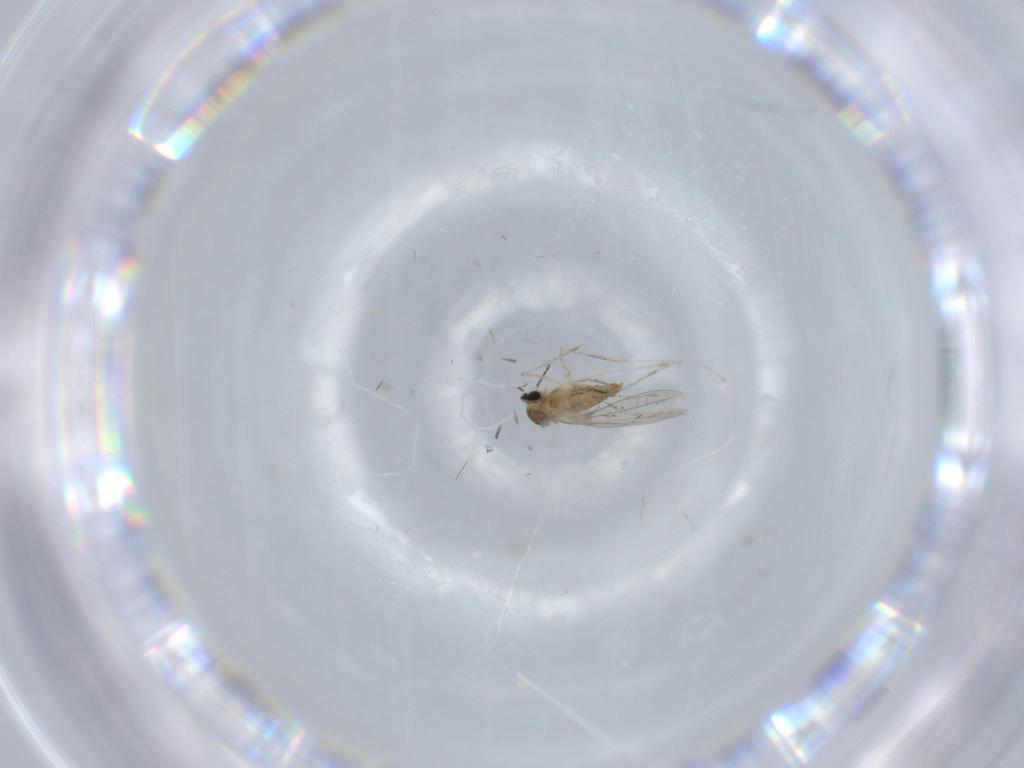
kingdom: Animalia
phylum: Arthropoda
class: Insecta
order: Diptera
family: Cecidomyiidae
